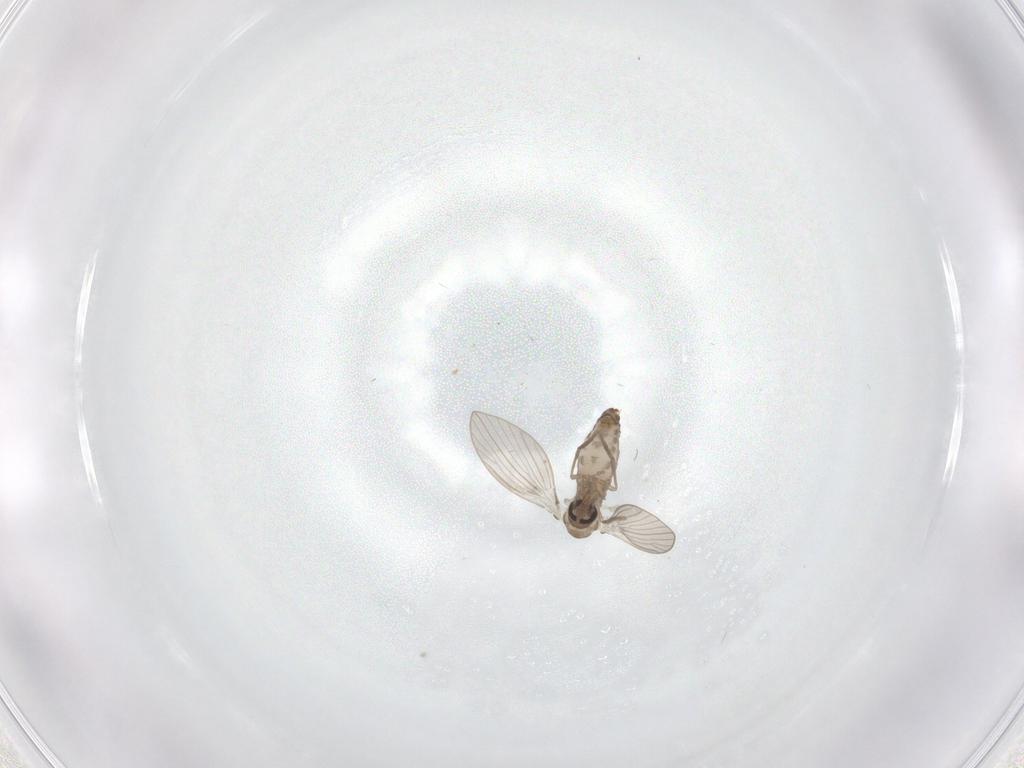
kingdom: Animalia
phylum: Arthropoda
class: Insecta
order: Diptera
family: Psychodidae
